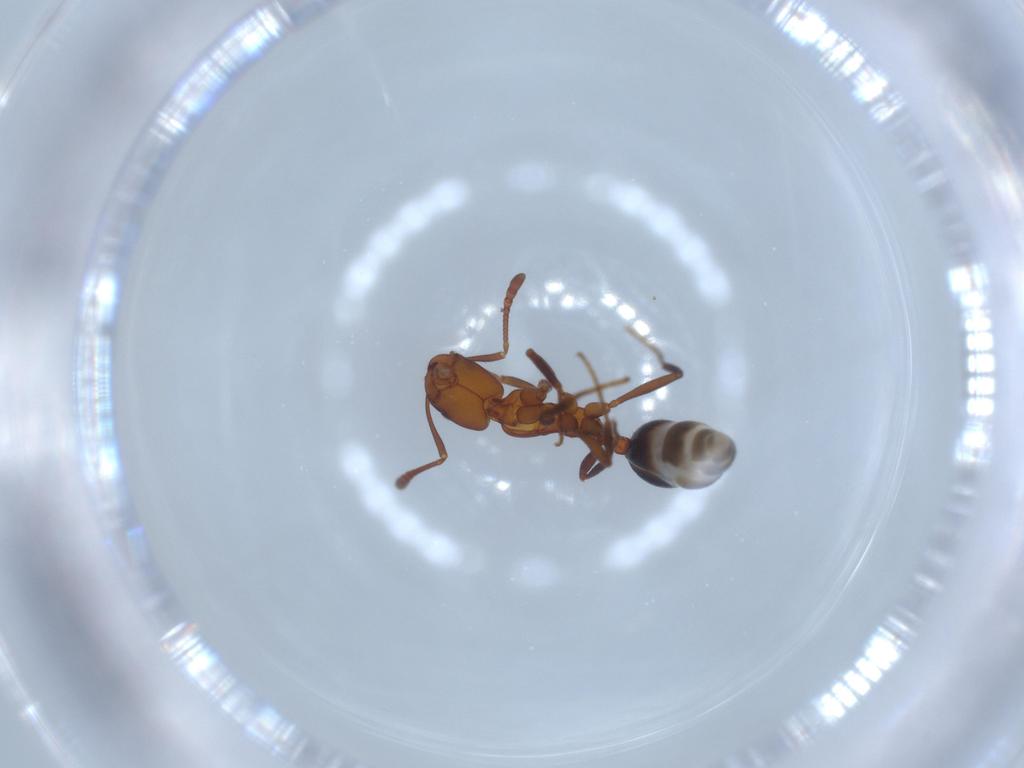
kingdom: Animalia
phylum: Arthropoda
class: Insecta
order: Hymenoptera
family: Formicidae
